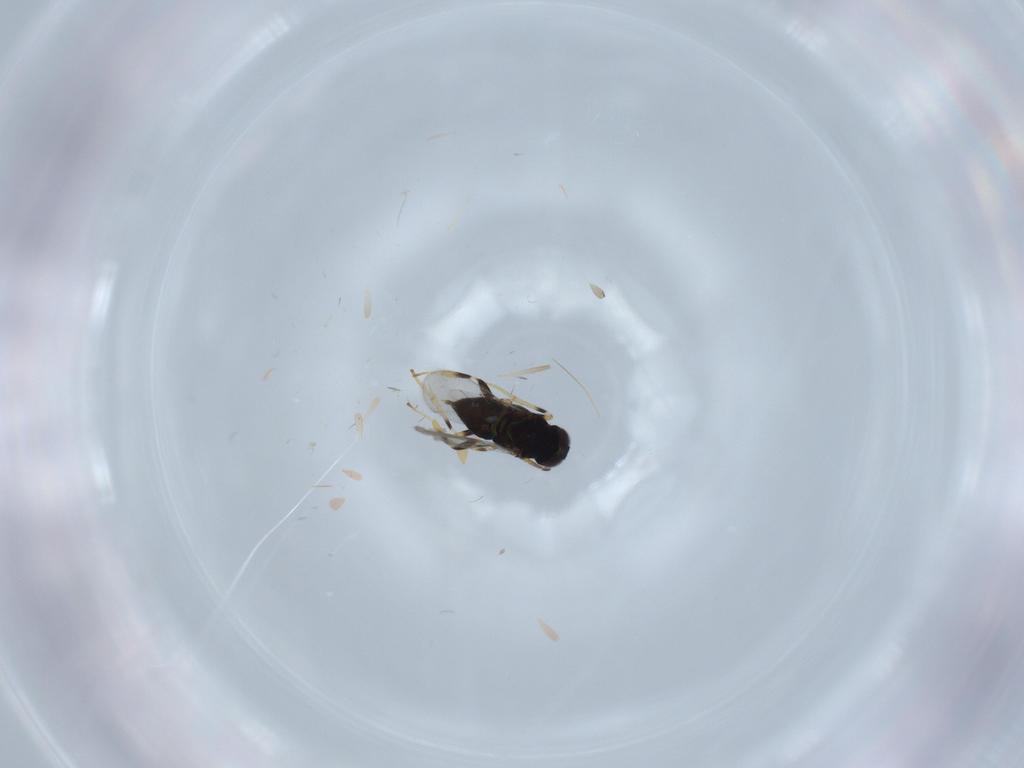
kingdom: Animalia
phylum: Arthropoda
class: Insecta
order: Hymenoptera
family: Encyrtidae
